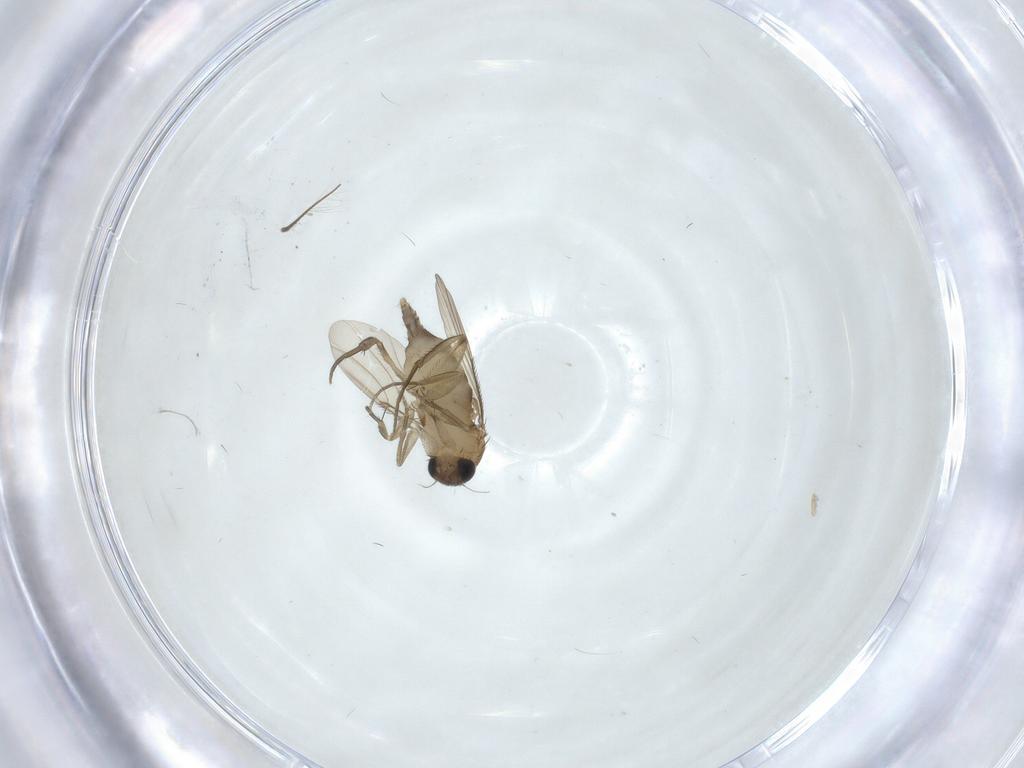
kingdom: Animalia
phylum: Arthropoda
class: Insecta
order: Diptera
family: Phoridae
